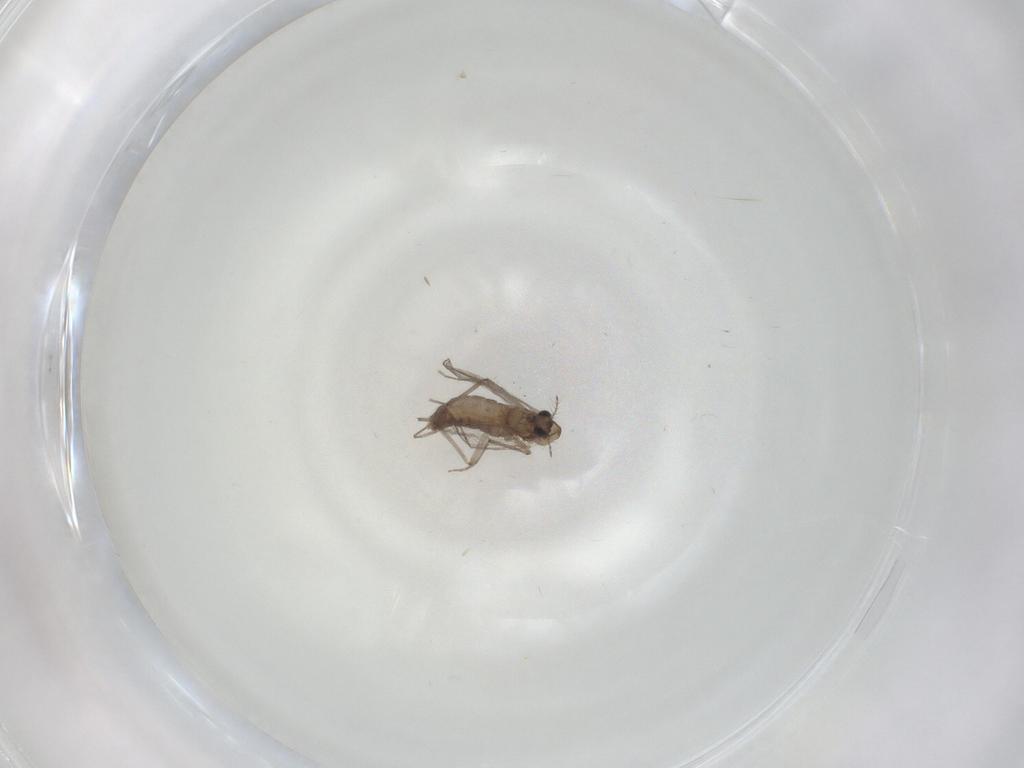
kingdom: Animalia
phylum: Arthropoda
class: Insecta
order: Diptera
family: Chironomidae
